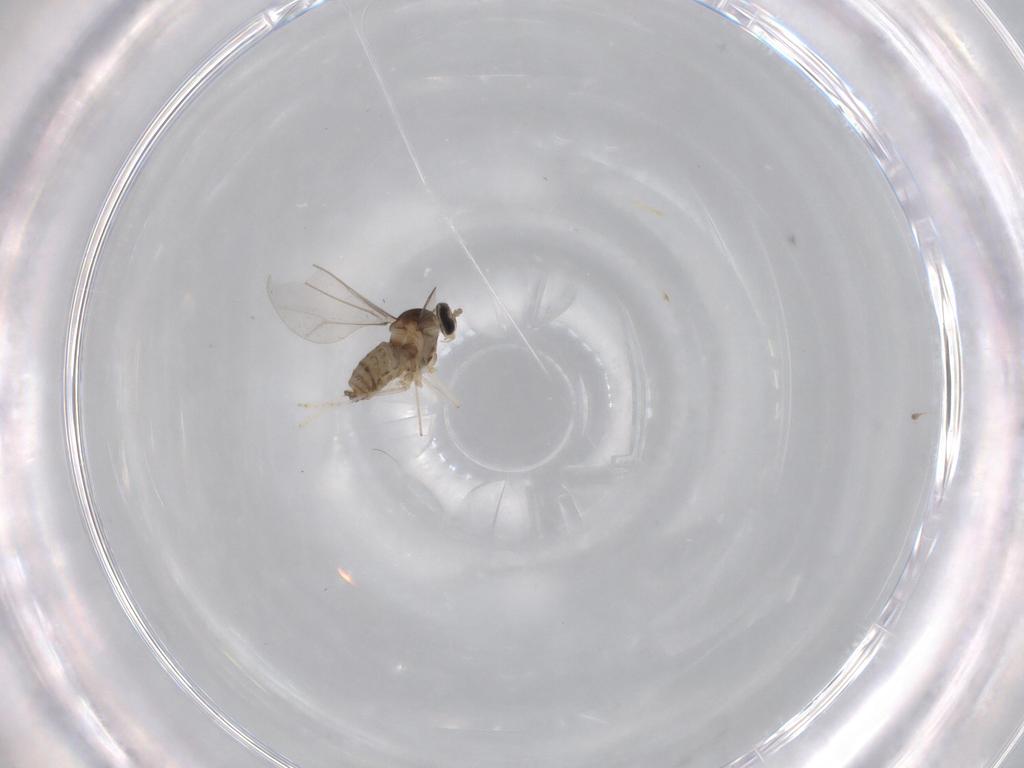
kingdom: Animalia
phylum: Arthropoda
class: Insecta
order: Diptera
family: Cecidomyiidae
